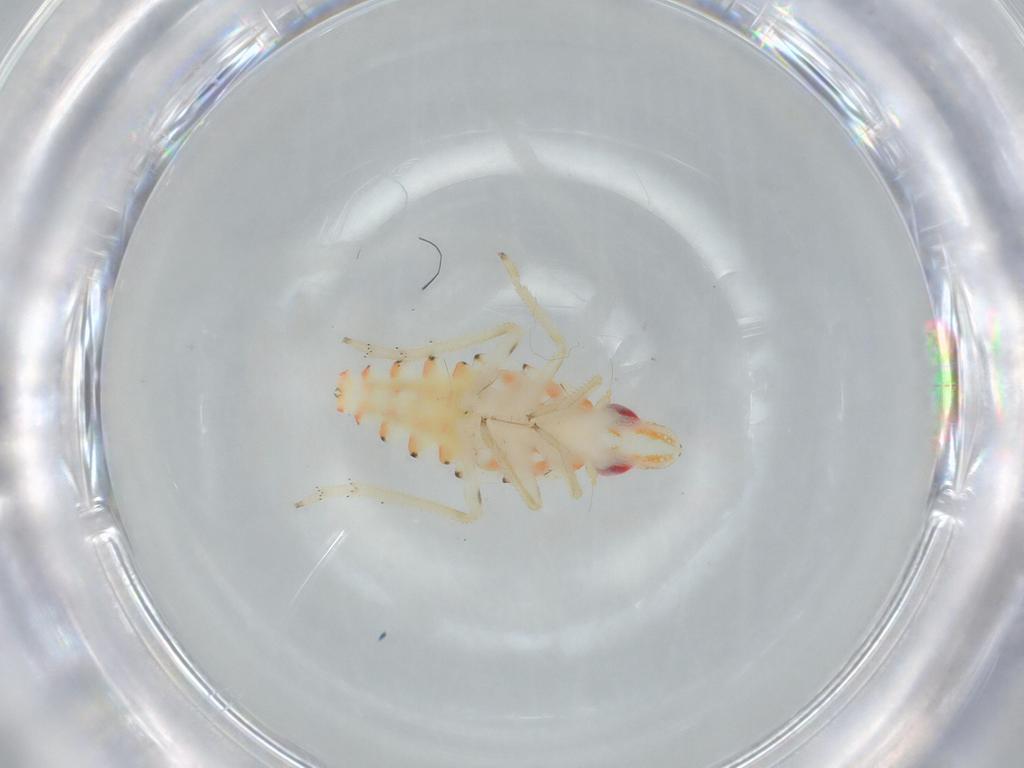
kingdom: Animalia
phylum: Arthropoda
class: Insecta
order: Hemiptera
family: Tropiduchidae
